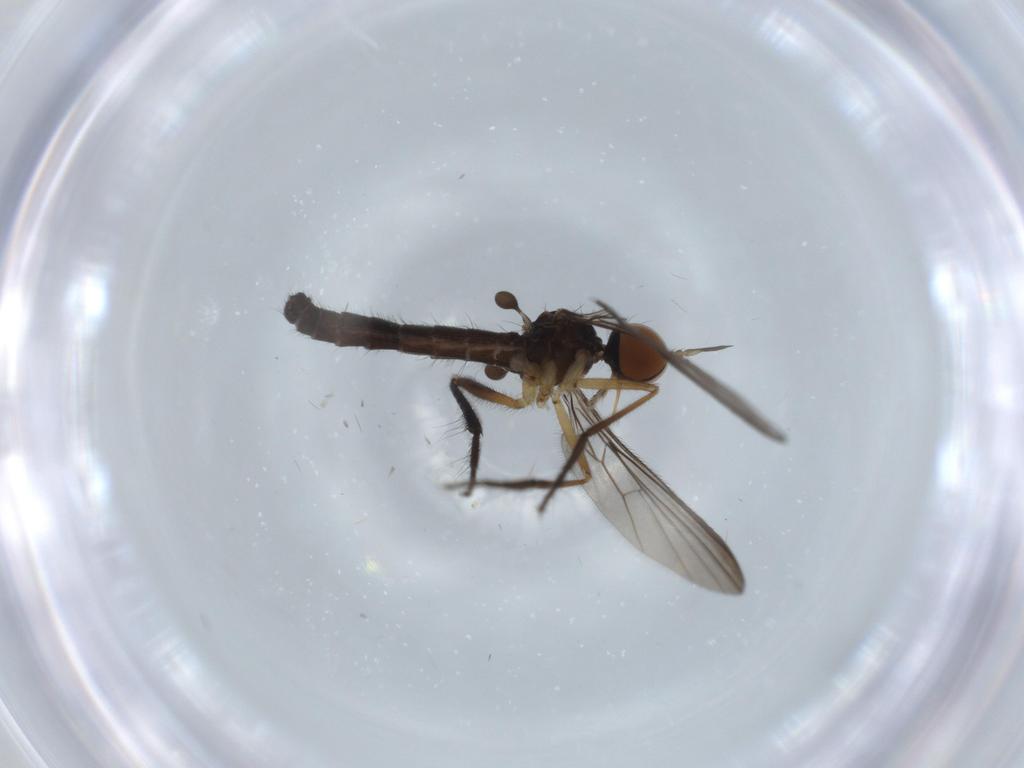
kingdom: Animalia
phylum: Arthropoda
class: Insecta
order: Diptera
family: Empididae
